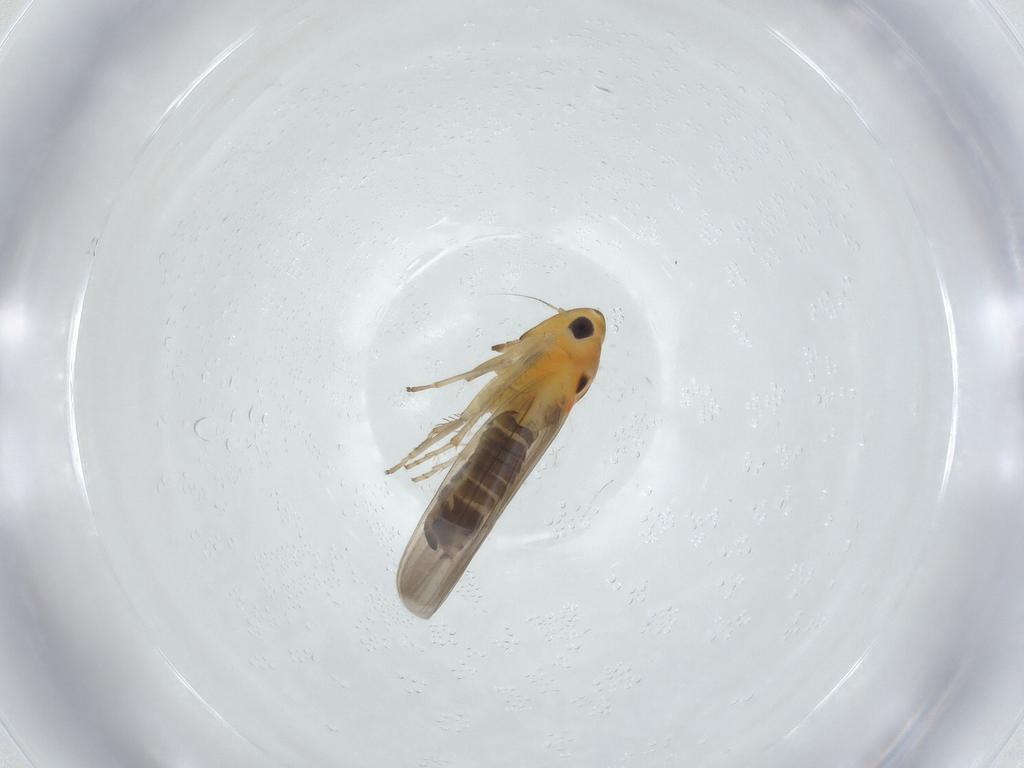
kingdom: Animalia
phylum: Arthropoda
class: Insecta
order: Hemiptera
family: Cicadellidae
